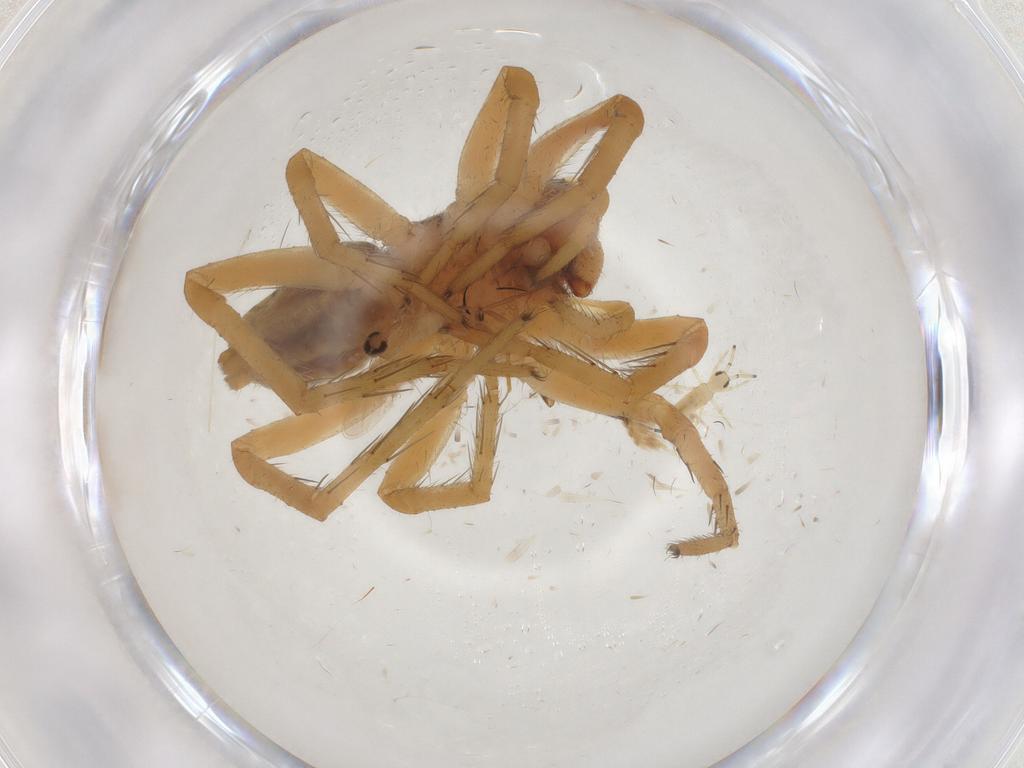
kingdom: Animalia
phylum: Arthropoda
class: Arachnida
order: Araneae
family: Lycosidae
